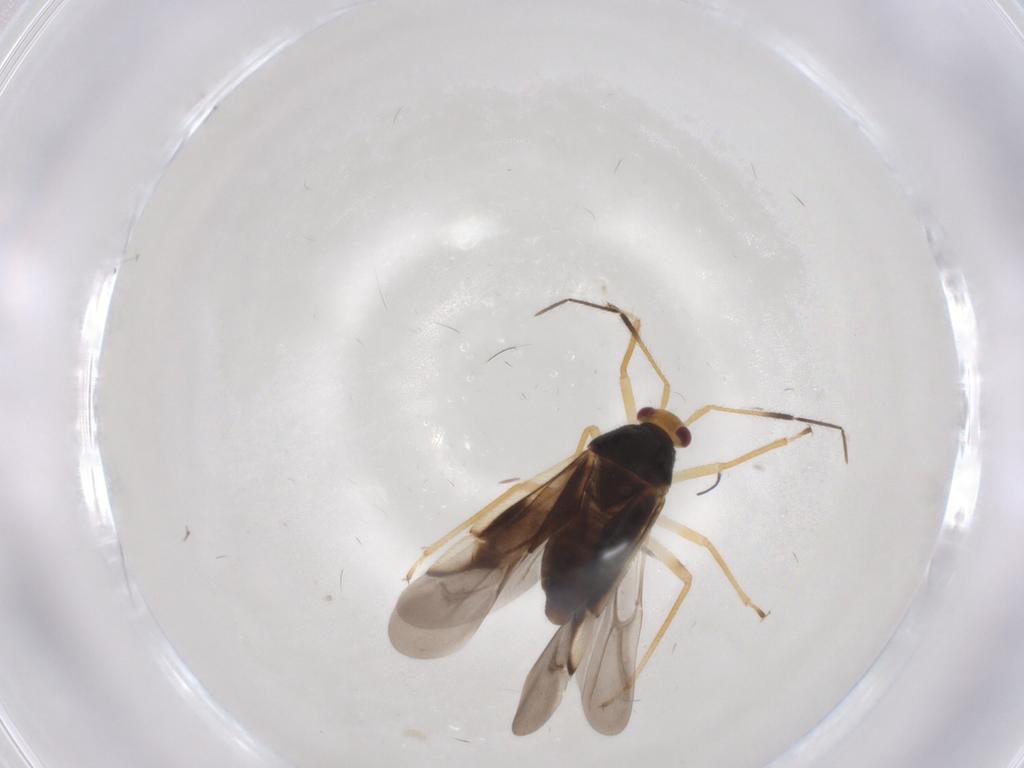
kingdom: Animalia
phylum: Arthropoda
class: Insecta
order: Hemiptera
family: Miridae
